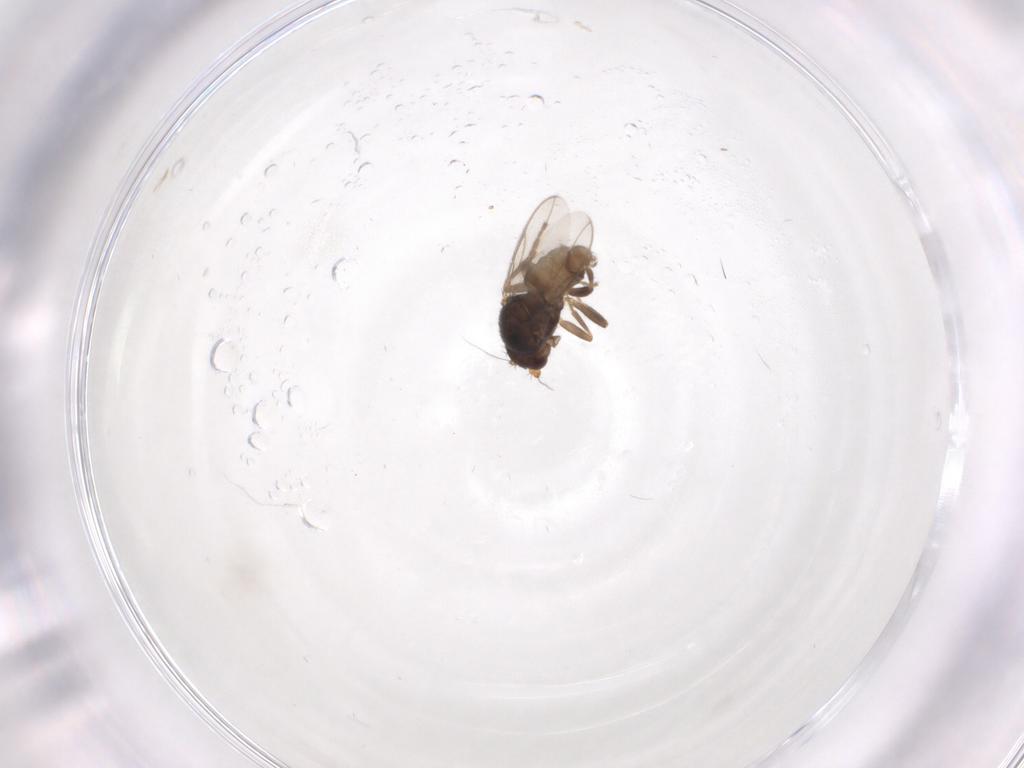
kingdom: Animalia
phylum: Arthropoda
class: Insecta
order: Diptera
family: Sphaeroceridae
